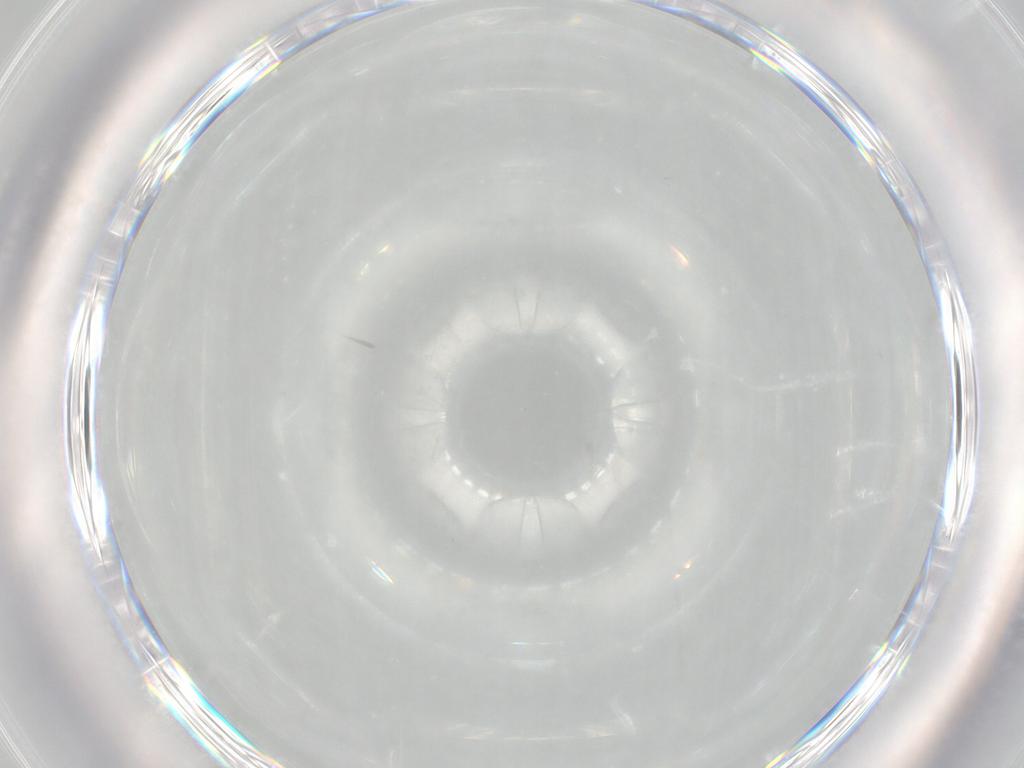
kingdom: Animalia
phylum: Arthropoda
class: Insecta
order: Diptera
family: Cecidomyiidae
